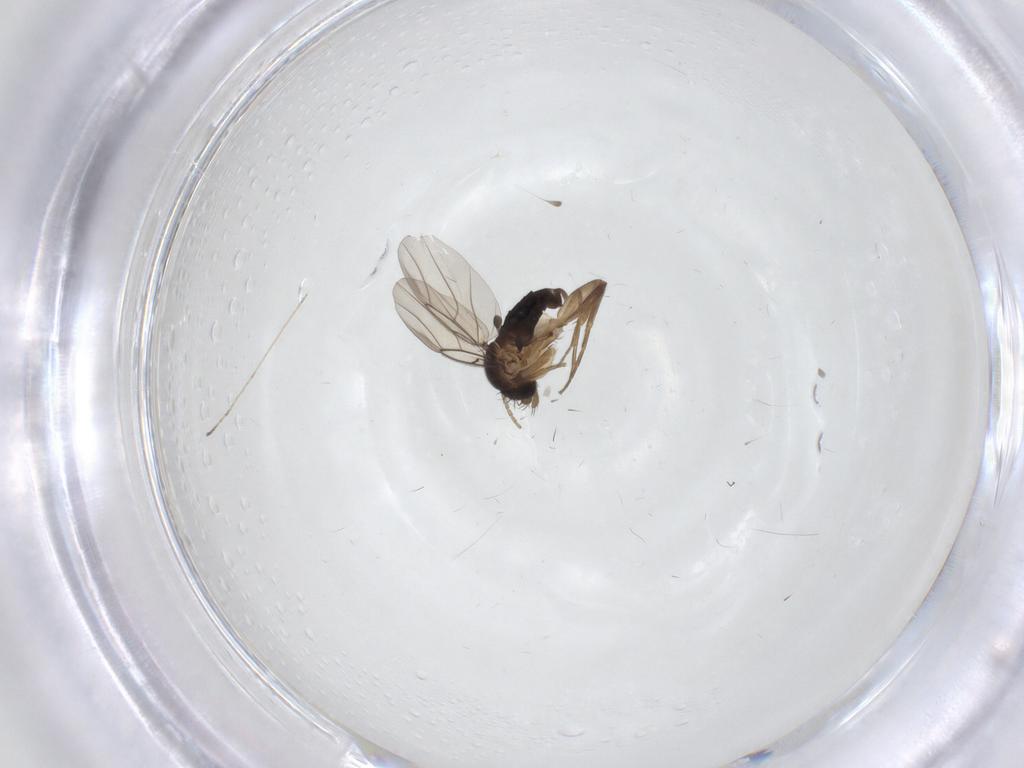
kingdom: Animalia
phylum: Arthropoda
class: Insecta
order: Diptera
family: Phoridae
